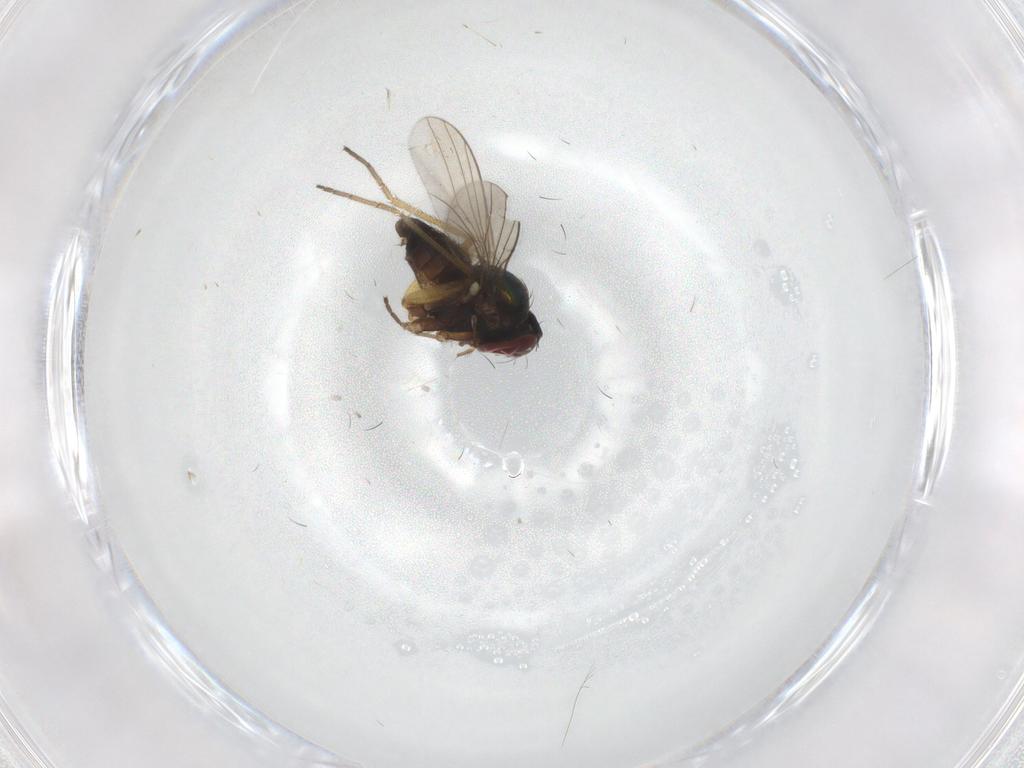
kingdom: Animalia
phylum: Arthropoda
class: Insecta
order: Diptera
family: Dolichopodidae
